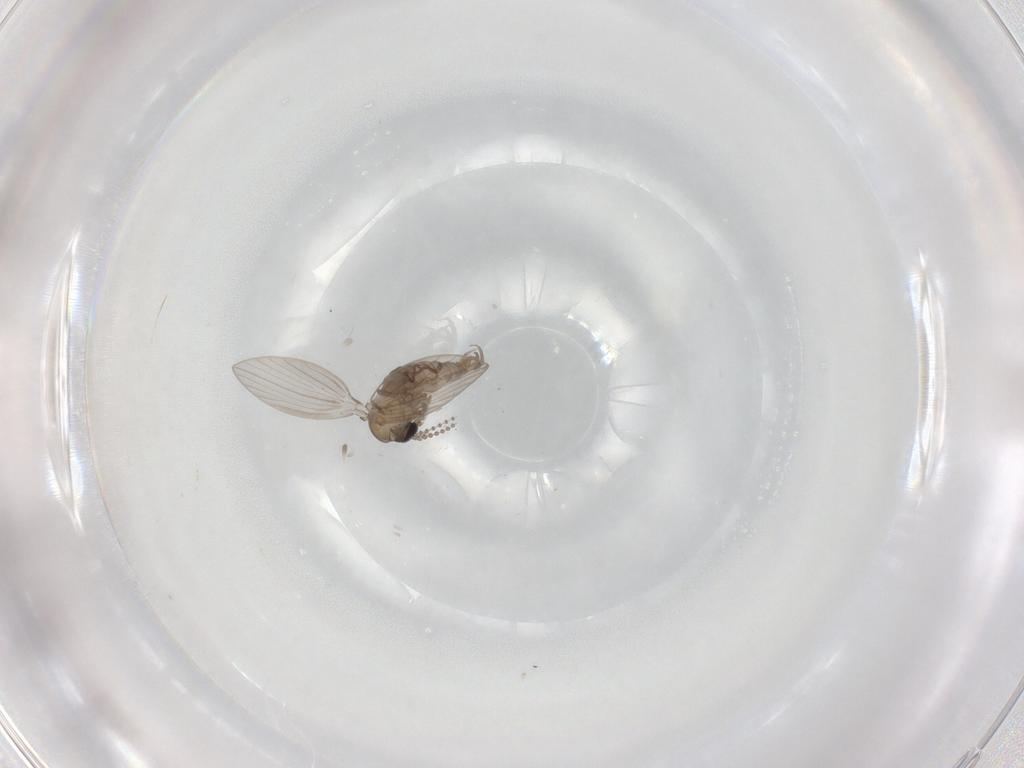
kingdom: Animalia
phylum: Arthropoda
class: Insecta
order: Diptera
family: Psychodidae
